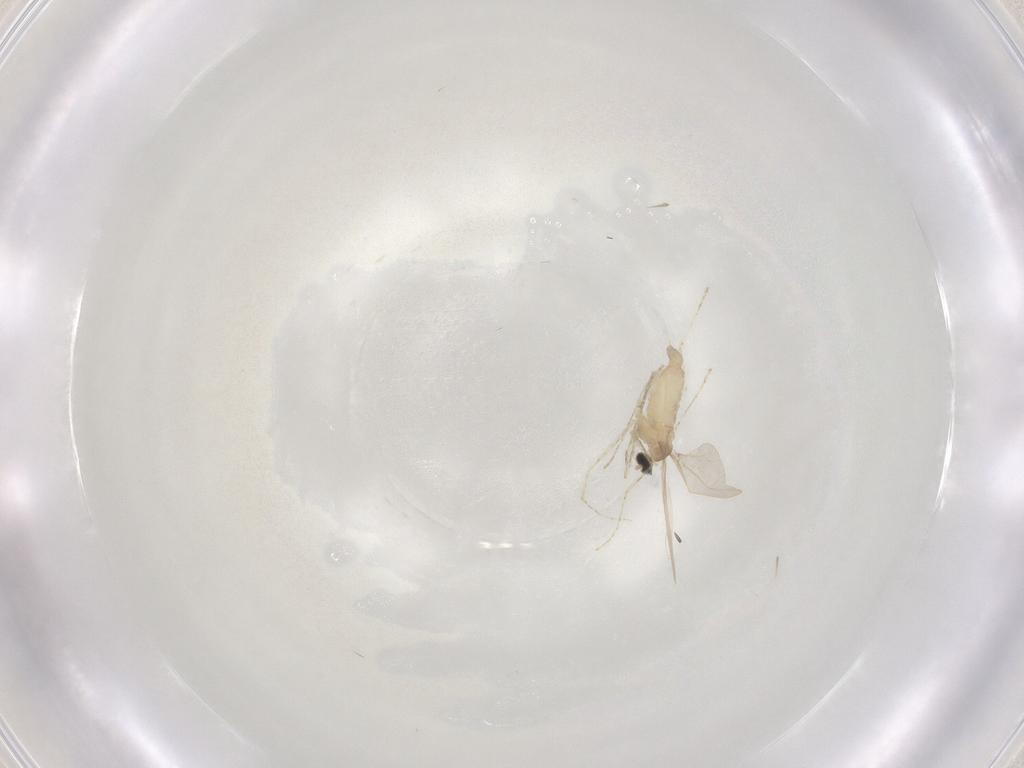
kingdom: Animalia
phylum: Arthropoda
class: Insecta
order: Diptera
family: Cecidomyiidae
